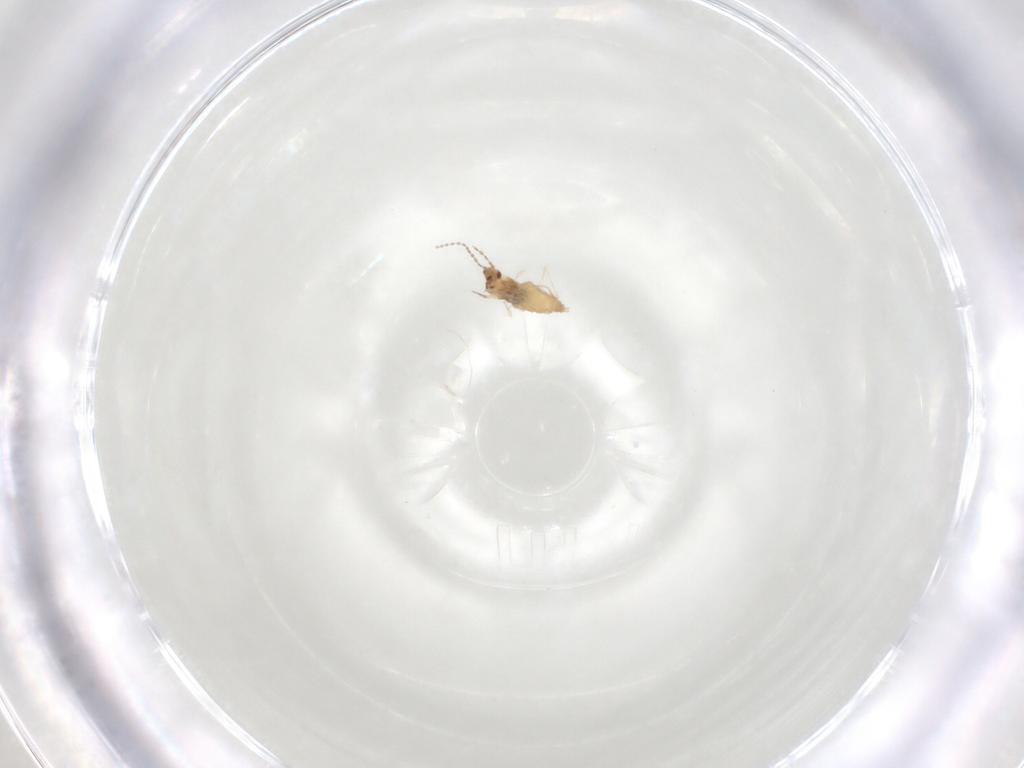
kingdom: Animalia
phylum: Arthropoda
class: Insecta
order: Diptera
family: Cecidomyiidae
